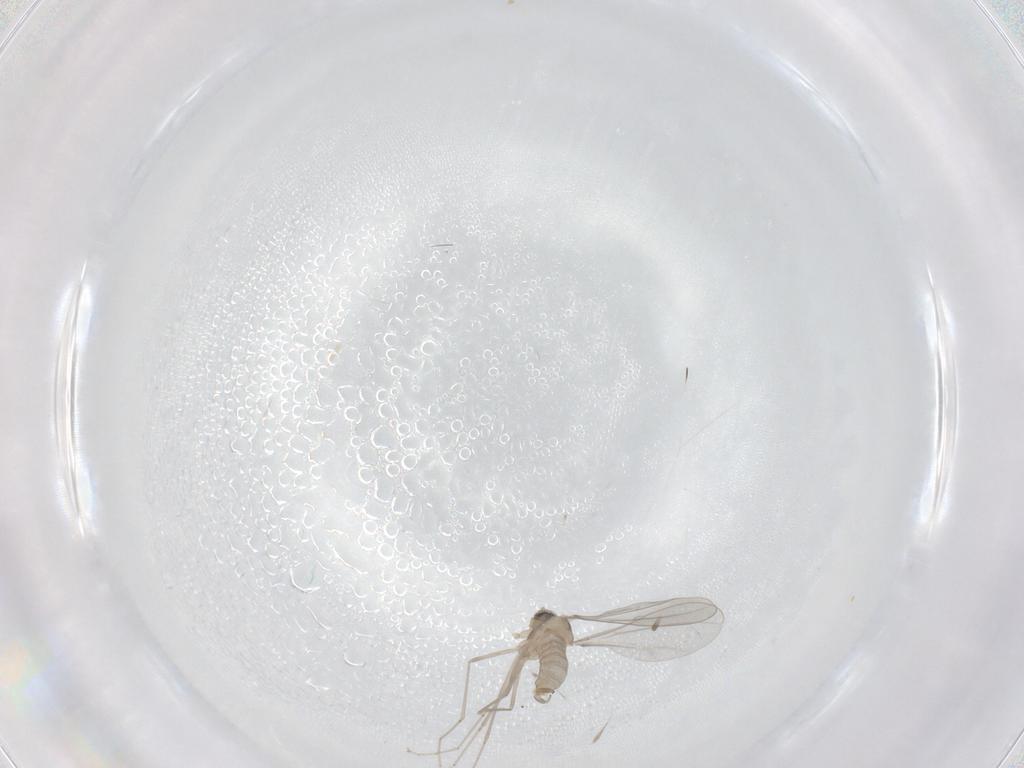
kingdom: Animalia
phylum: Arthropoda
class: Insecta
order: Diptera
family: Cecidomyiidae
